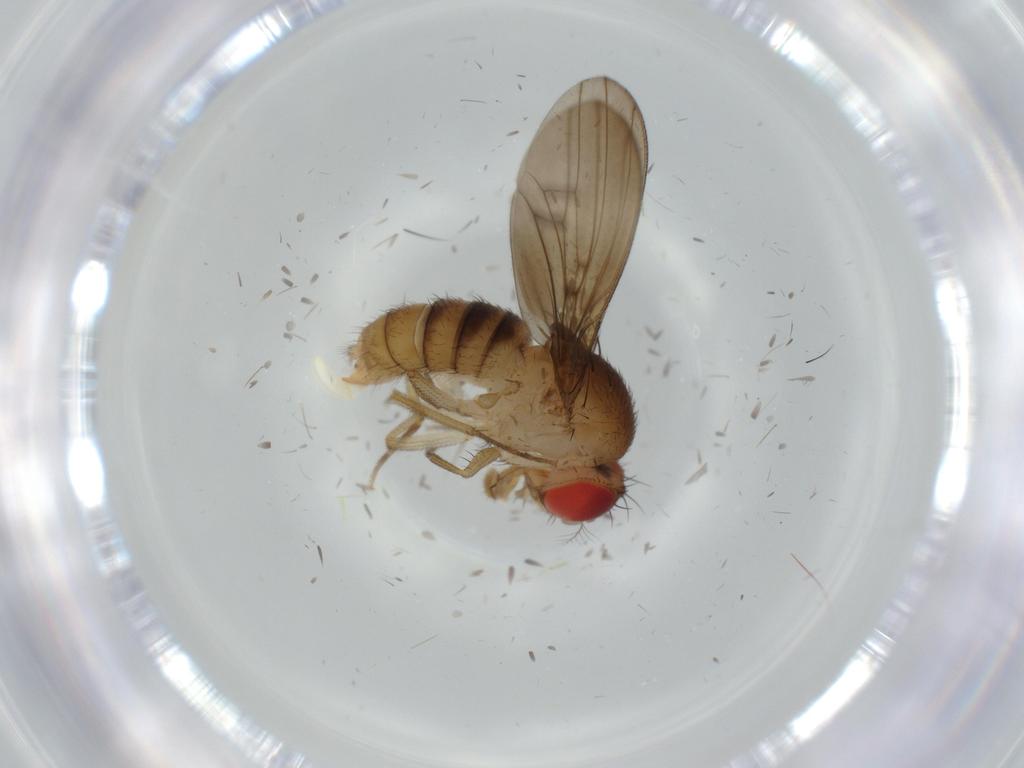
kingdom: Animalia
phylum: Arthropoda
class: Insecta
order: Diptera
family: Drosophilidae
